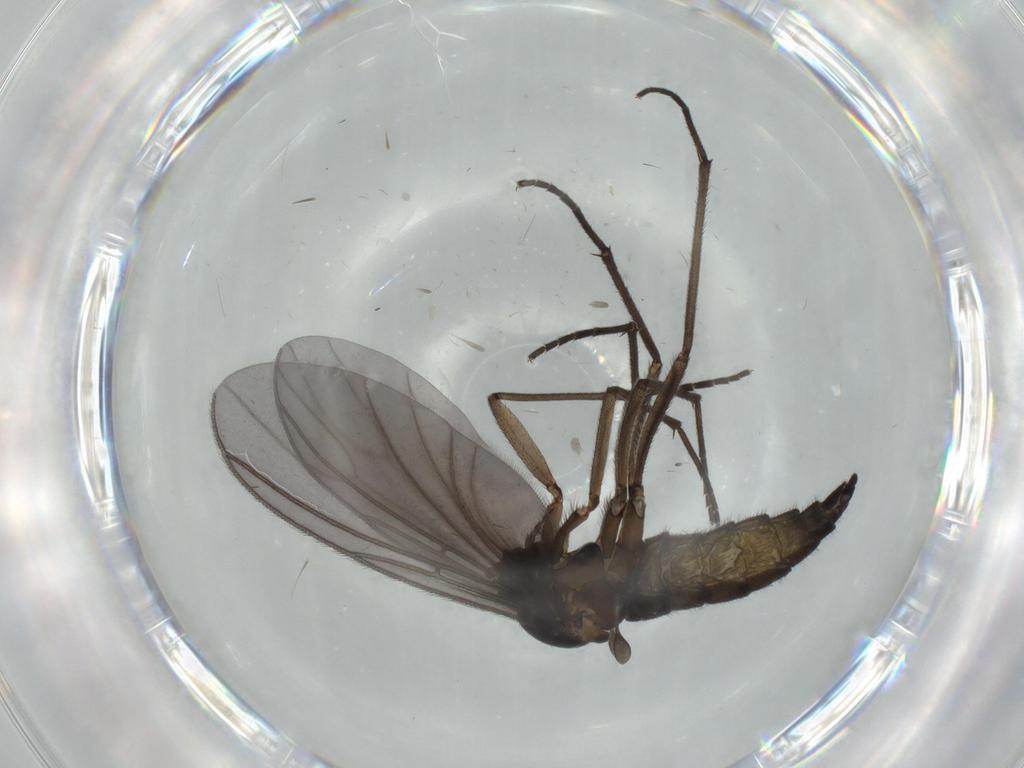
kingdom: Animalia
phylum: Arthropoda
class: Insecta
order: Diptera
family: Sciaridae
